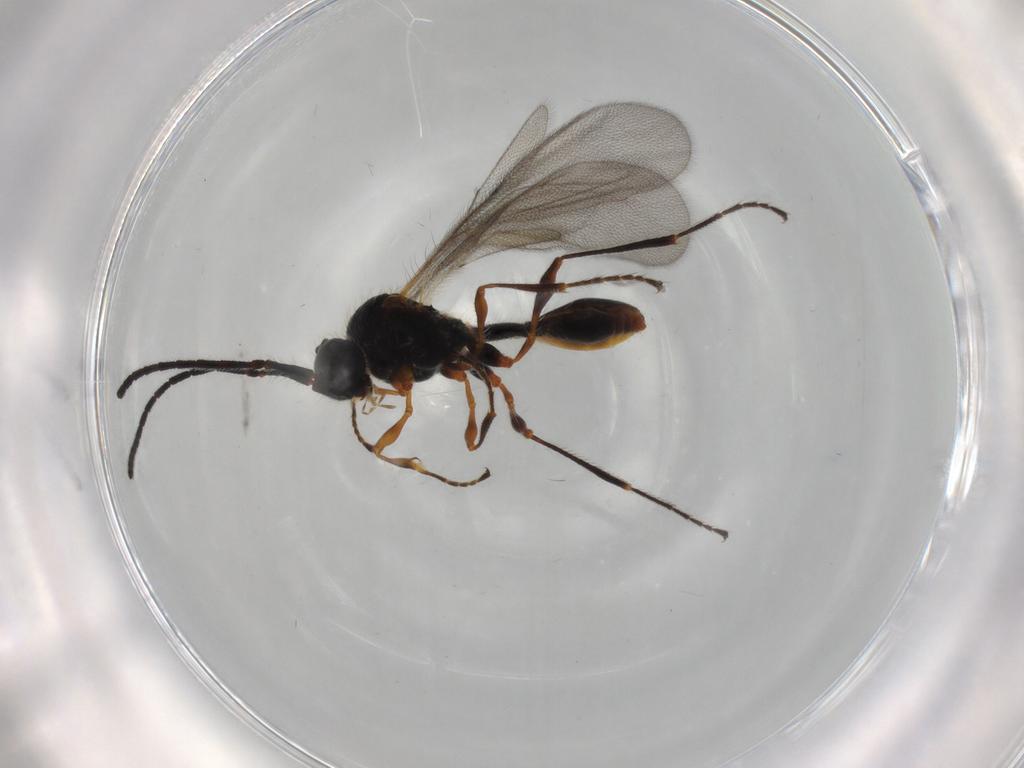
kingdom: Animalia
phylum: Arthropoda
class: Insecta
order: Hymenoptera
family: Diapriidae
